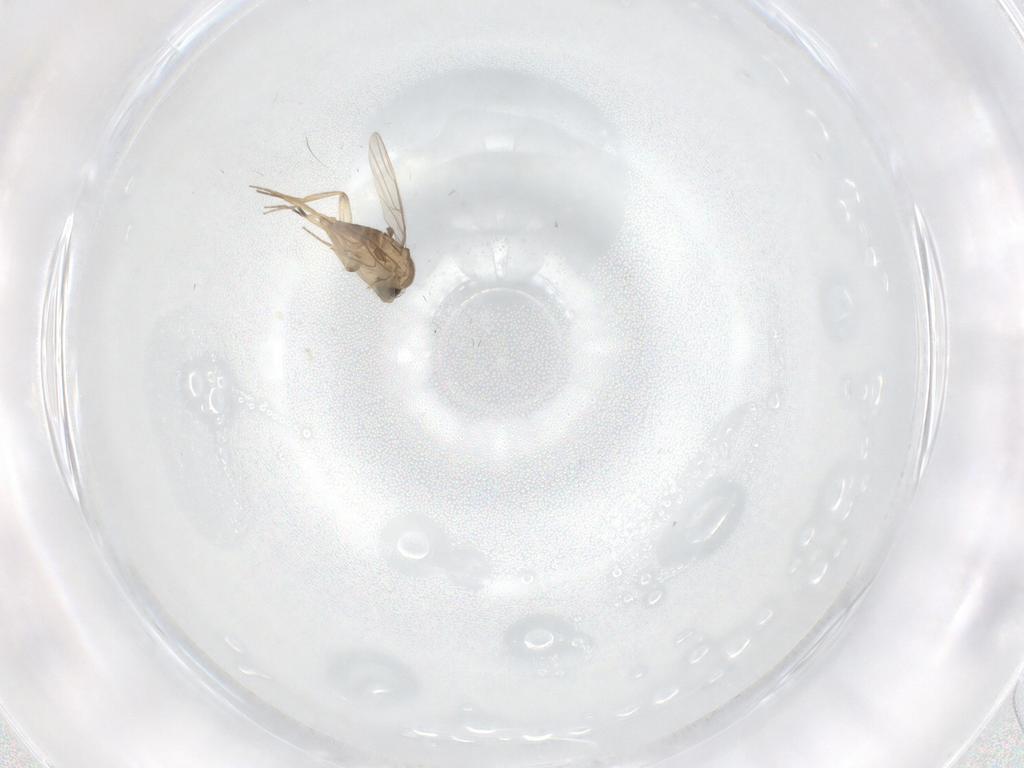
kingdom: Animalia
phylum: Arthropoda
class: Insecta
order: Diptera
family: Phoridae
